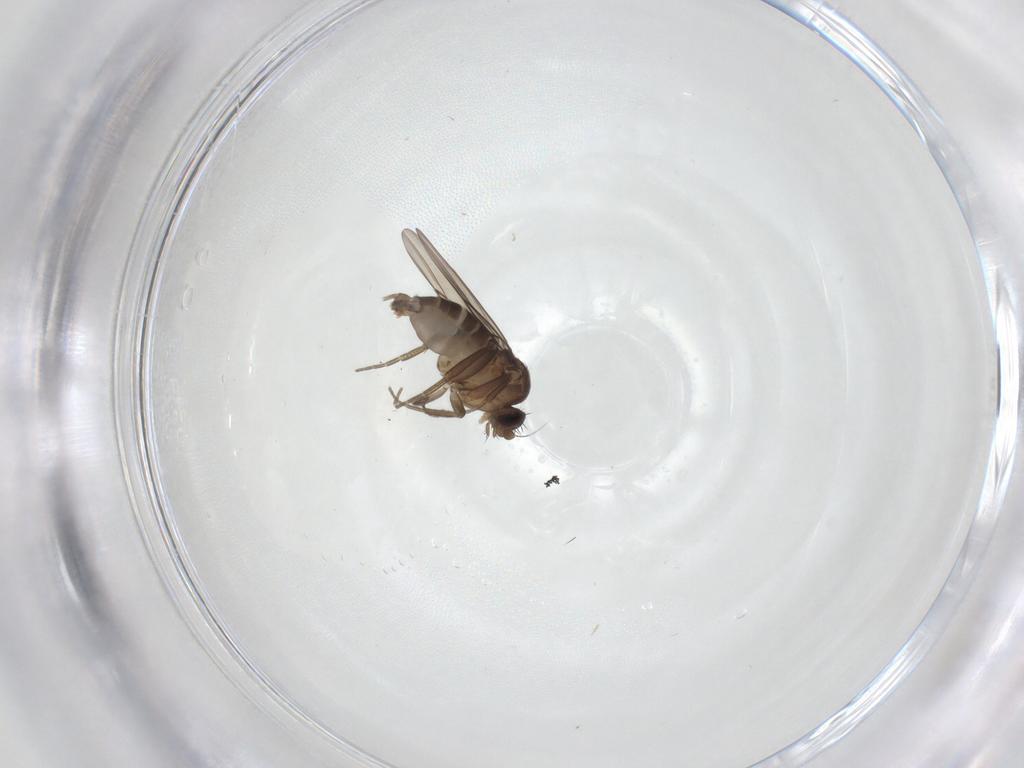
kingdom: Animalia
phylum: Arthropoda
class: Insecta
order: Diptera
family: Phoridae
